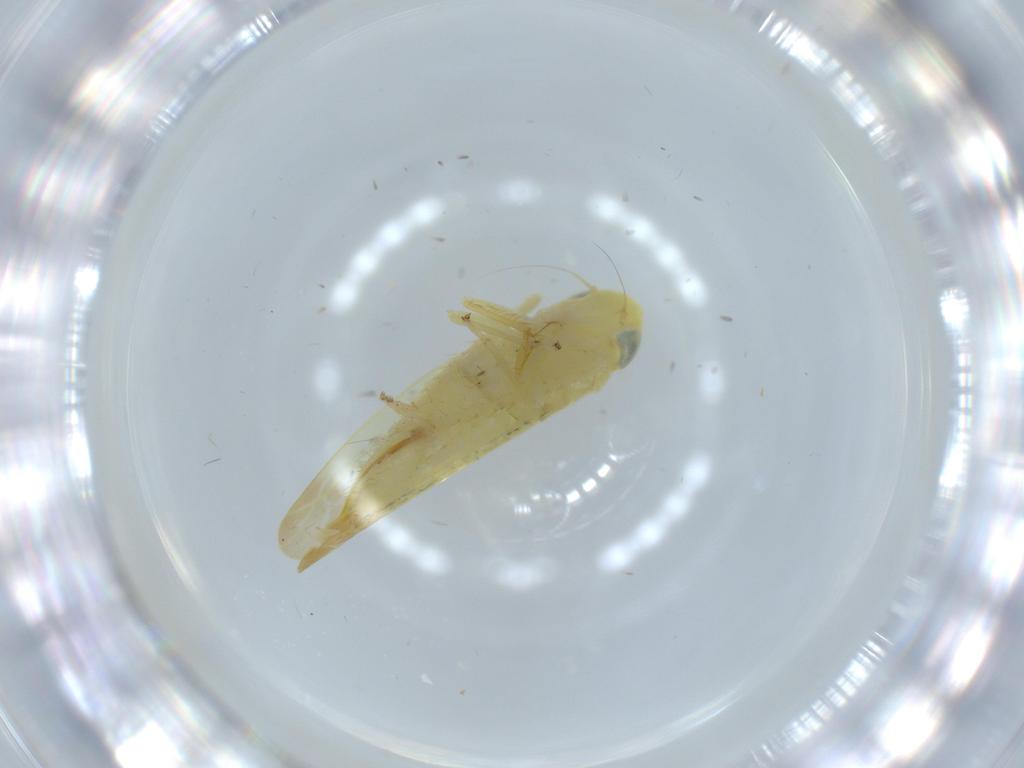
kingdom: Animalia
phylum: Arthropoda
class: Insecta
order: Hemiptera
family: Cicadellidae
